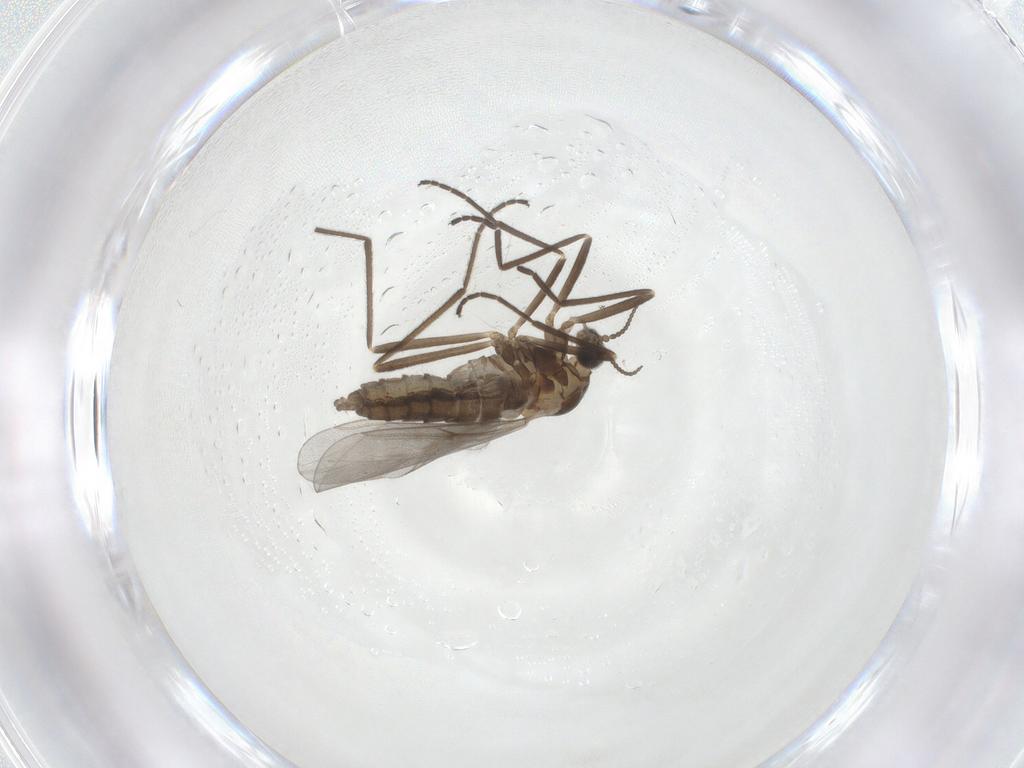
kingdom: Animalia
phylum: Arthropoda
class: Insecta
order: Diptera
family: Cecidomyiidae
